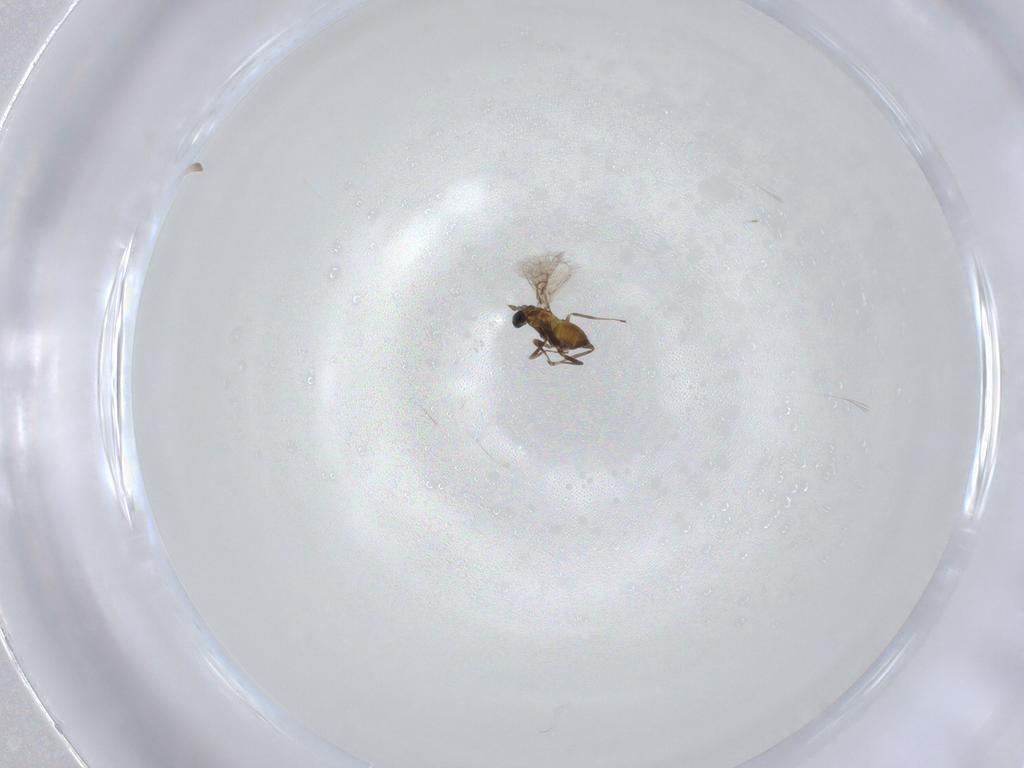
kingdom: Animalia
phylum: Arthropoda
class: Insecta
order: Hymenoptera
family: Trichogrammatidae
